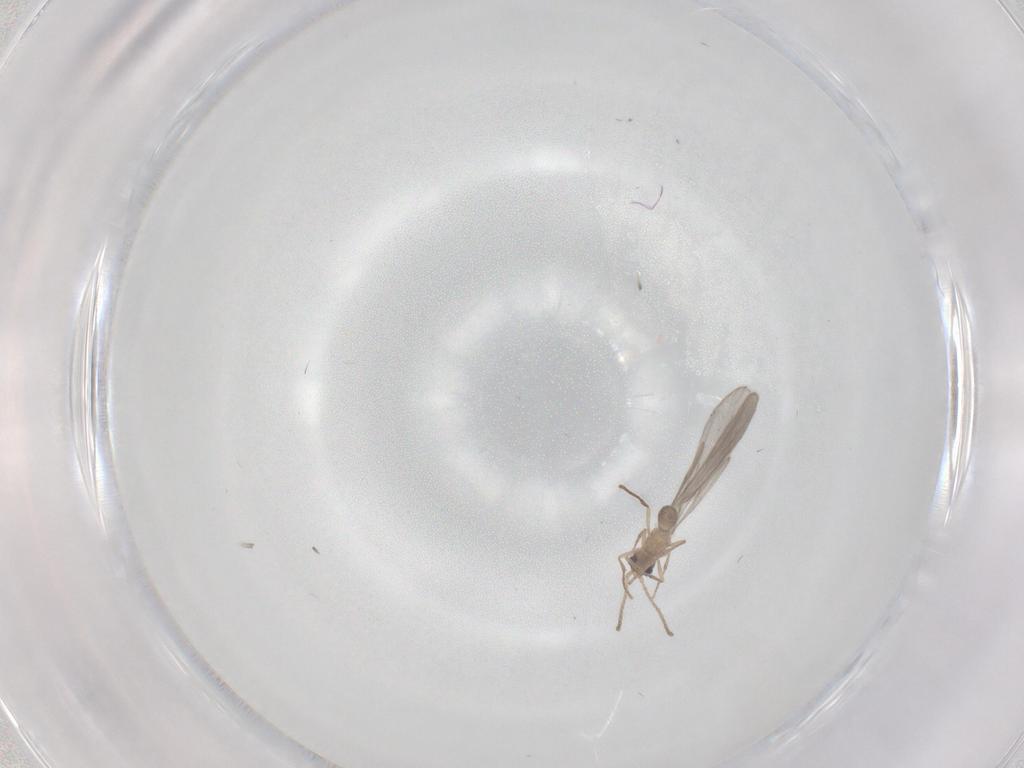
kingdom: Animalia
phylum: Arthropoda
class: Insecta
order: Hymenoptera
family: Formicidae
